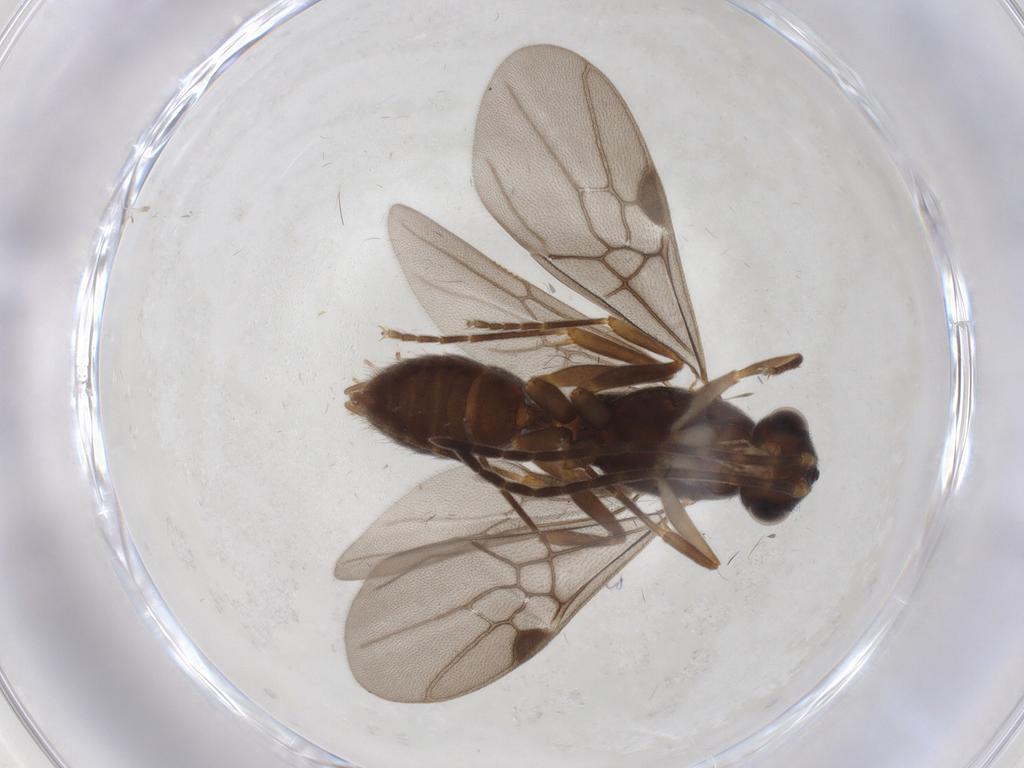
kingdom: Animalia
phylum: Arthropoda
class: Insecta
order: Hymenoptera
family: Formicidae
